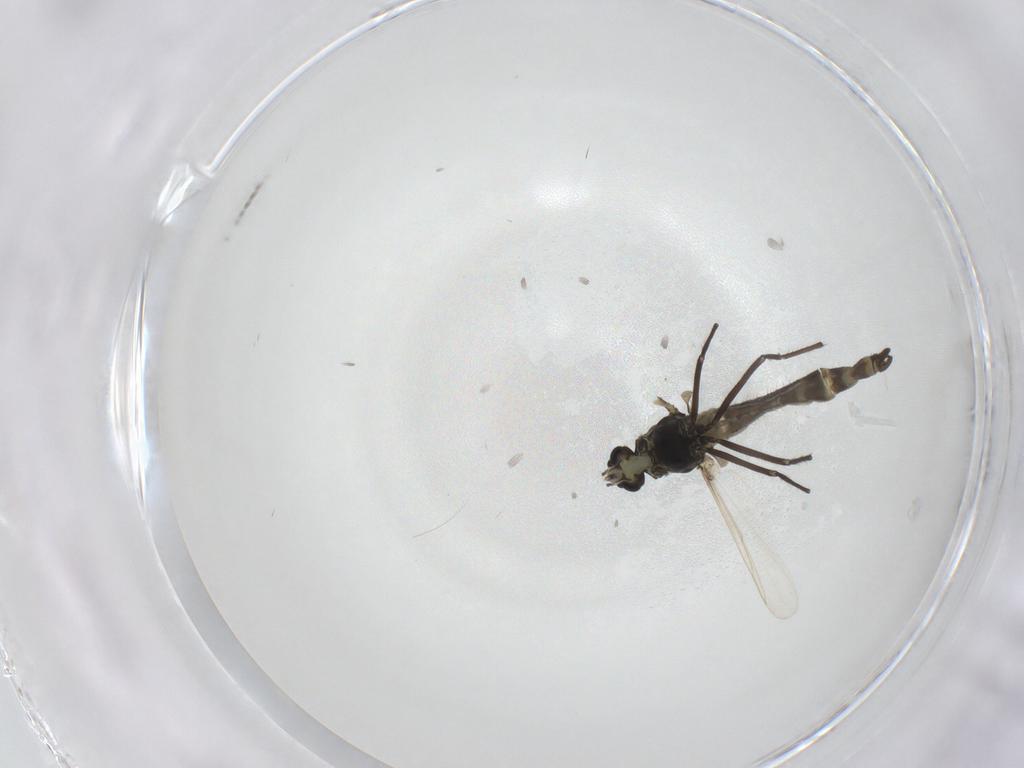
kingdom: Animalia
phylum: Arthropoda
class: Insecta
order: Diptera
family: Chironomidae
